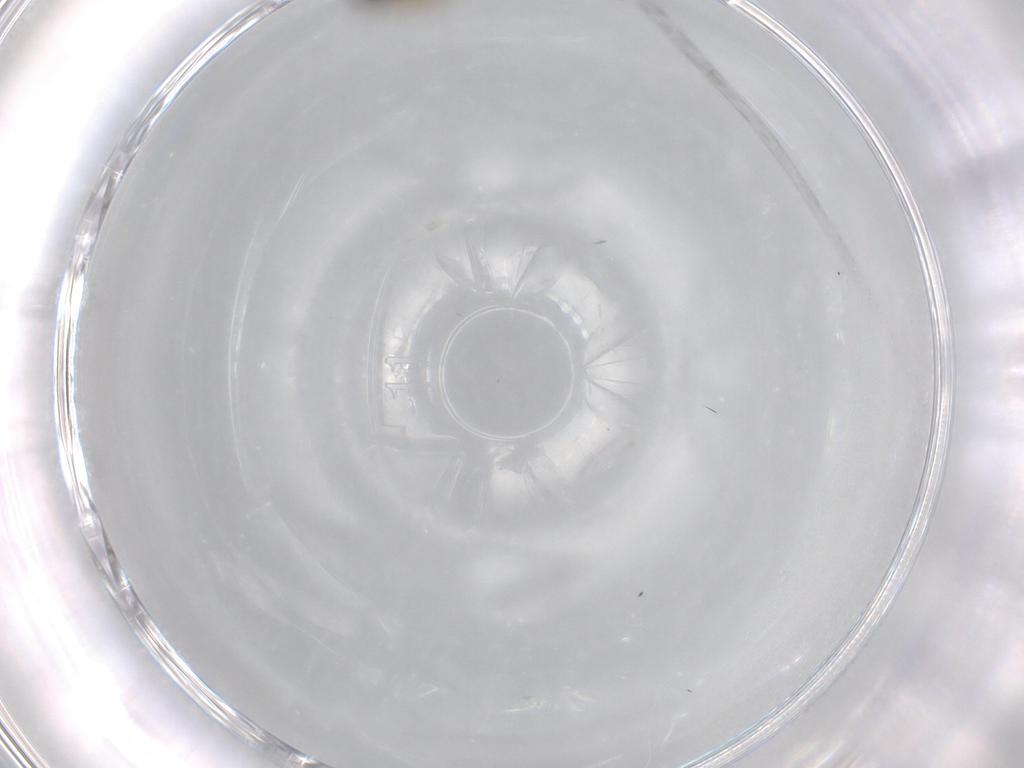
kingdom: Animalia
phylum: Arthropoda
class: Insecta
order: Diptera
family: Sciaridae
